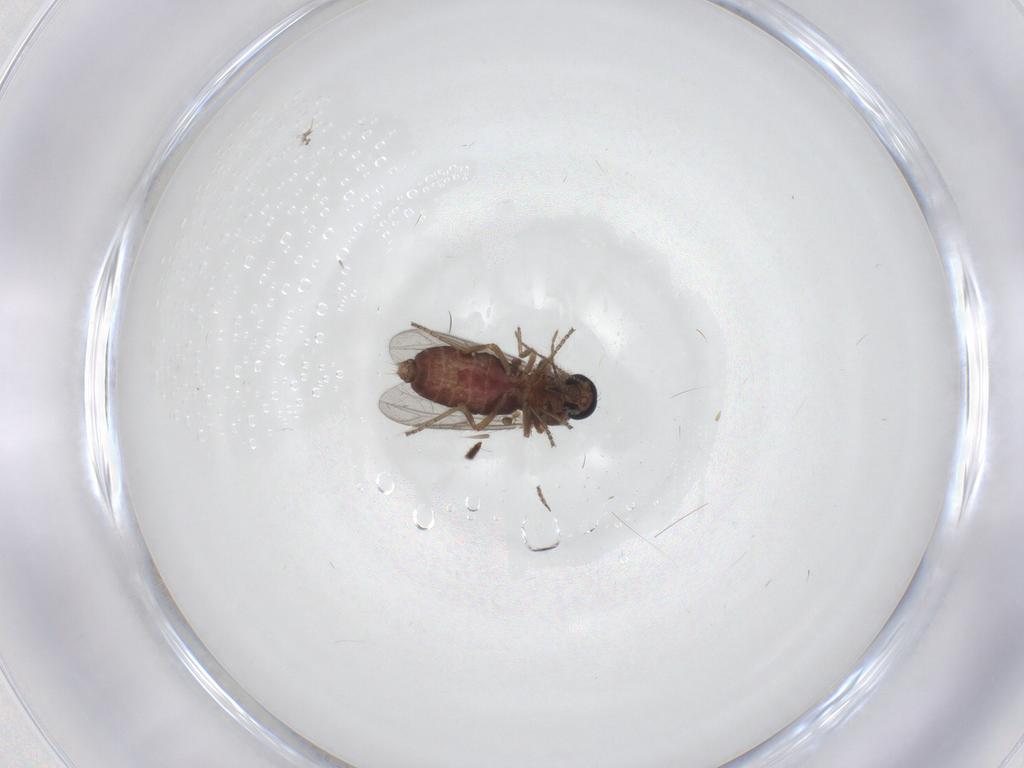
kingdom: Animalia
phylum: Arthropoda
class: Insecta
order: Diptera
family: Ceratopogonidae
